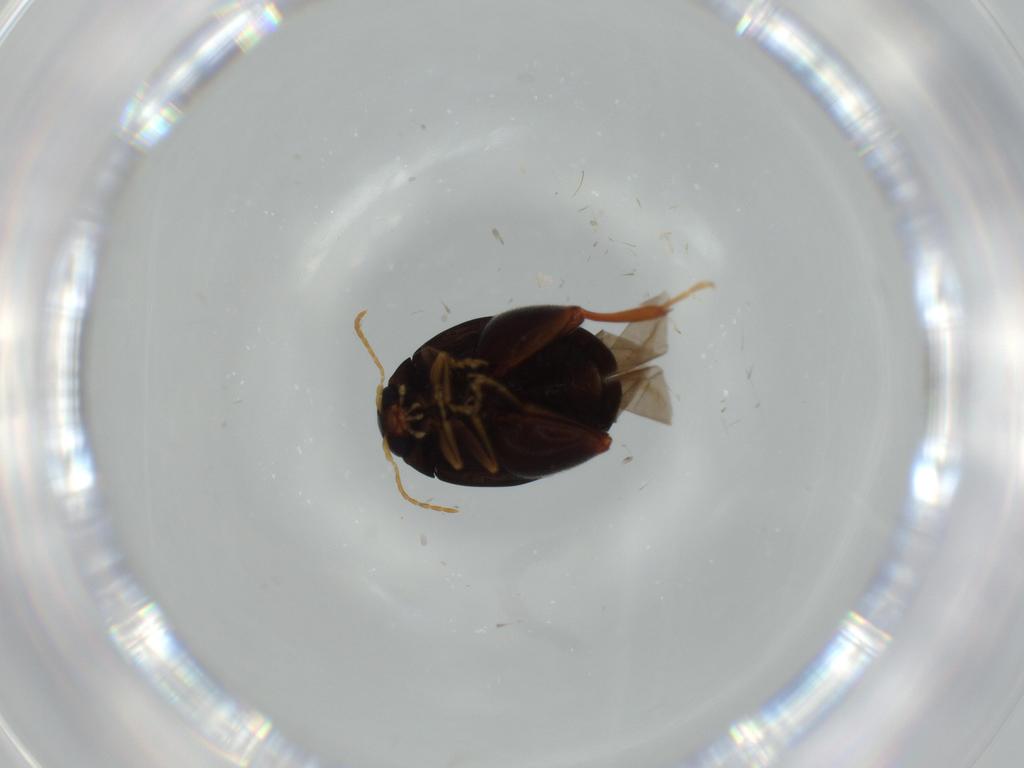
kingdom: Animalia
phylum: Arthropoda
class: Insecta
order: Coleoptera
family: Chrysomelidae
